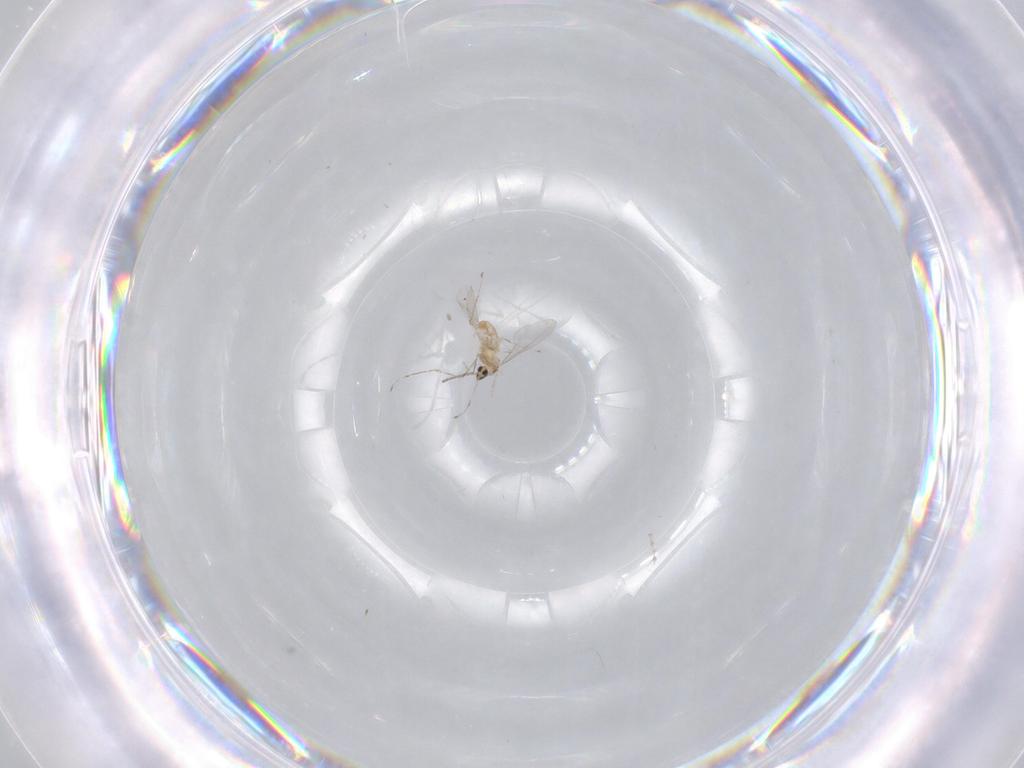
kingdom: Animalia
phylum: Arthropoda
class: Insecta
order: Diptera
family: Cecidomyiidae
